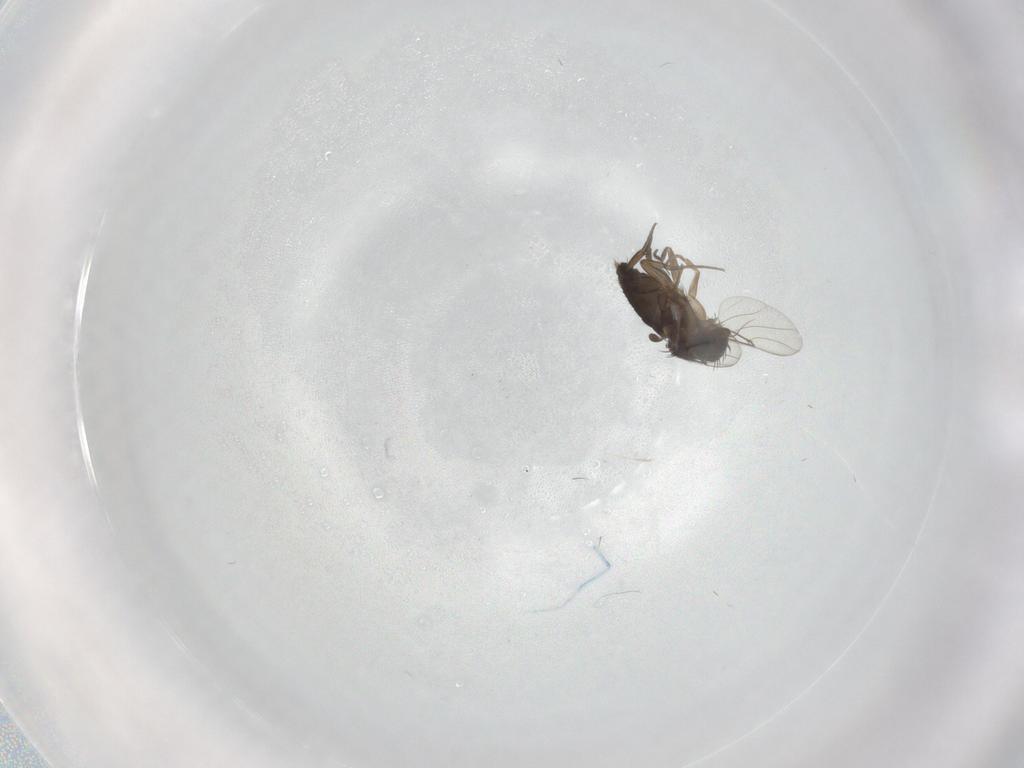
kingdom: Animalia
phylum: Arthropoda
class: Insecta
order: Diptera
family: Phoridae
